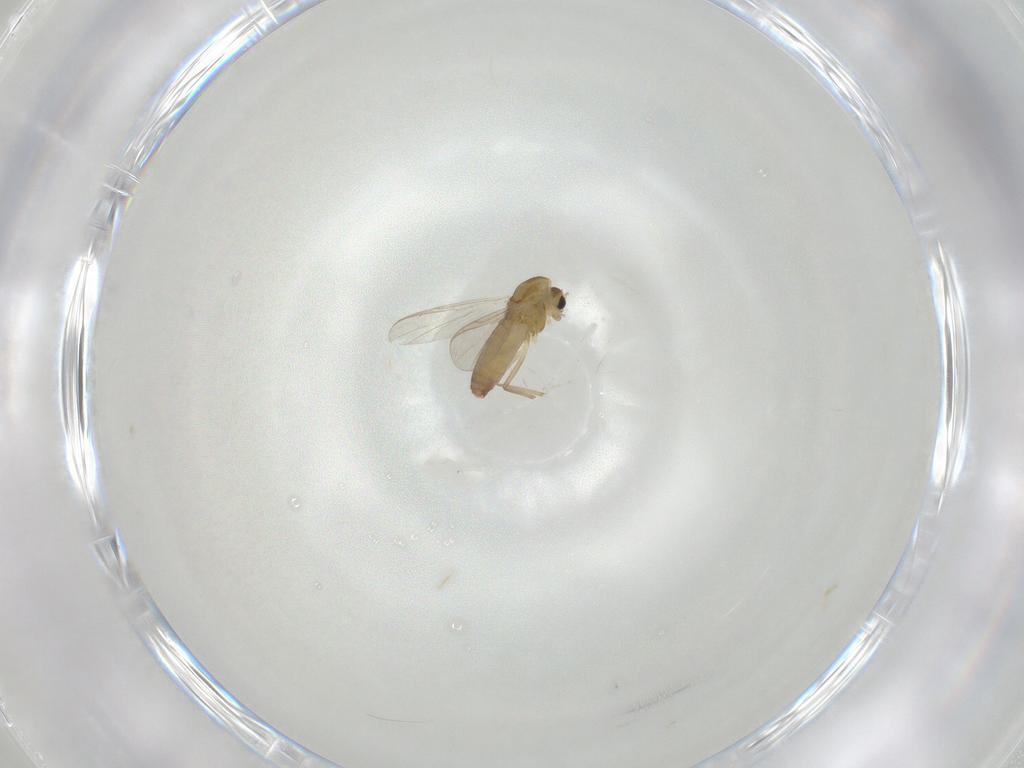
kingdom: Animalia
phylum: Arthropoda
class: Insecta
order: Diptera
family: Chironomidae
